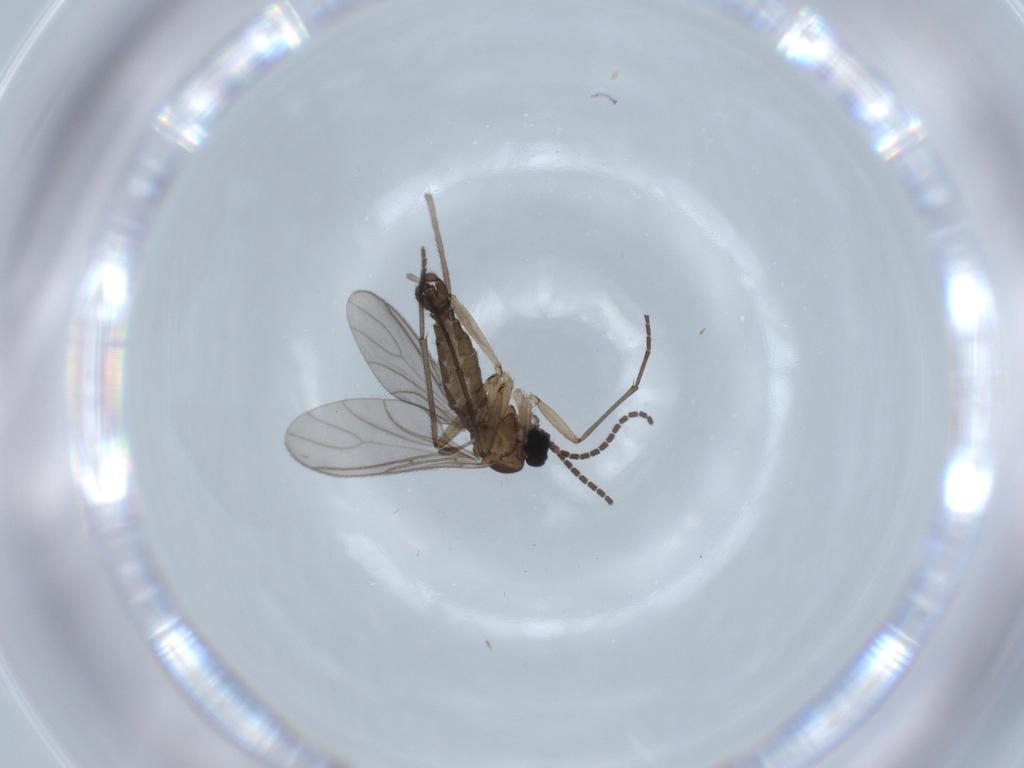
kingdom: Animalia
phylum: Arthropoda
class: Insecta
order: Diptera
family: Sciaridae
